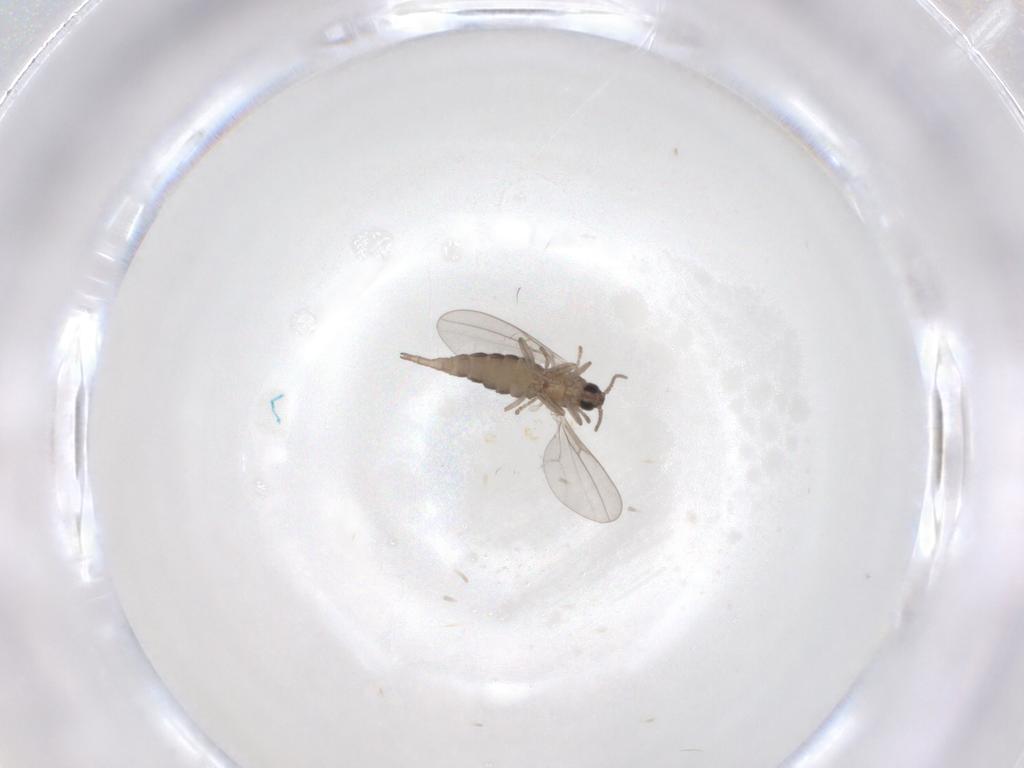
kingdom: Animalia
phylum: Arthropoda
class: Insecta
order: Diptera
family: Cecidomyiidae
